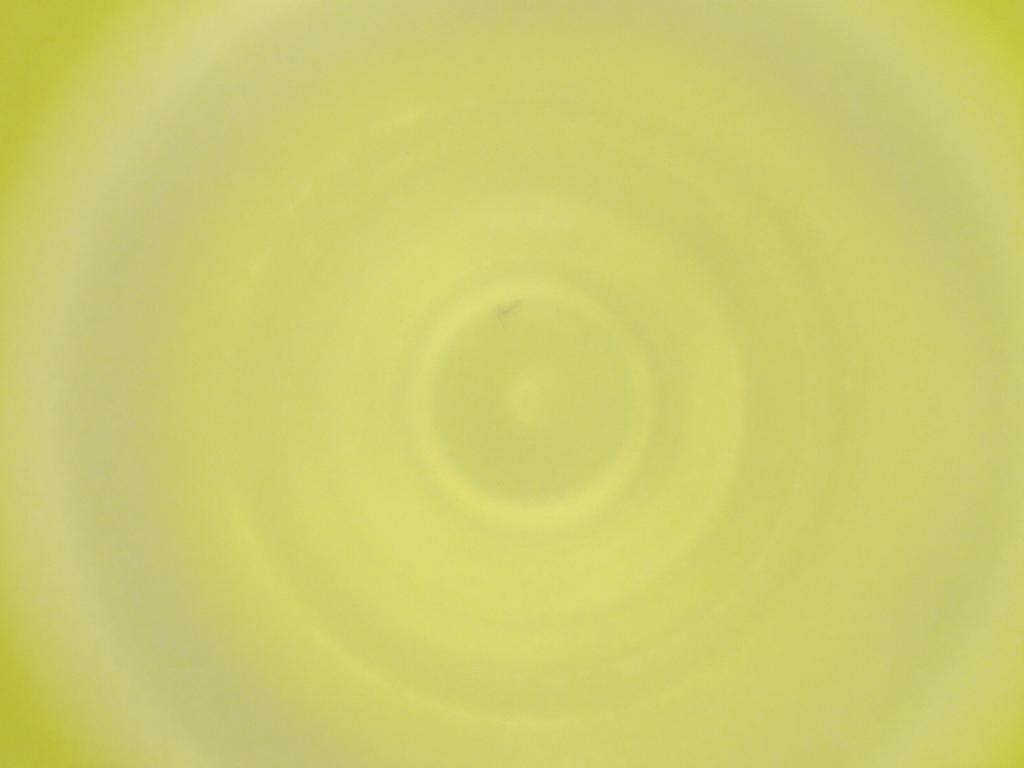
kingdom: Animalia
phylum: Arthropoda
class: Insecta
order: Diptera
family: Cecidomyiidae
